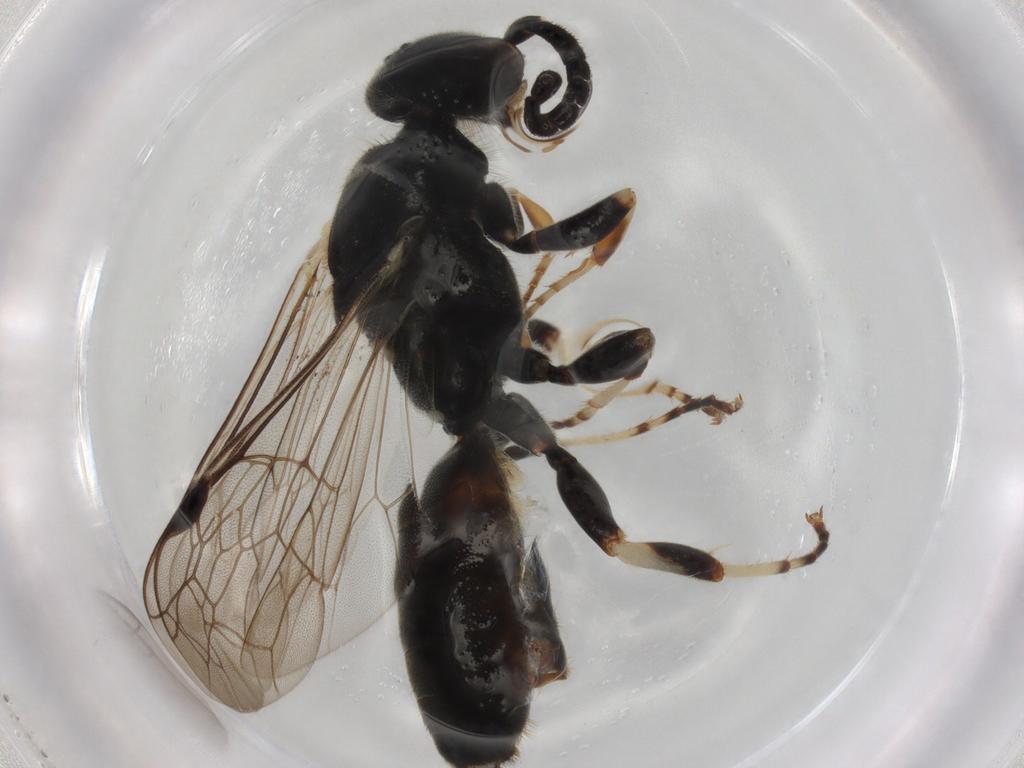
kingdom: Animalia
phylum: Arthropoda
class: Insecta
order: Hymenoptera
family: Thynnidae
